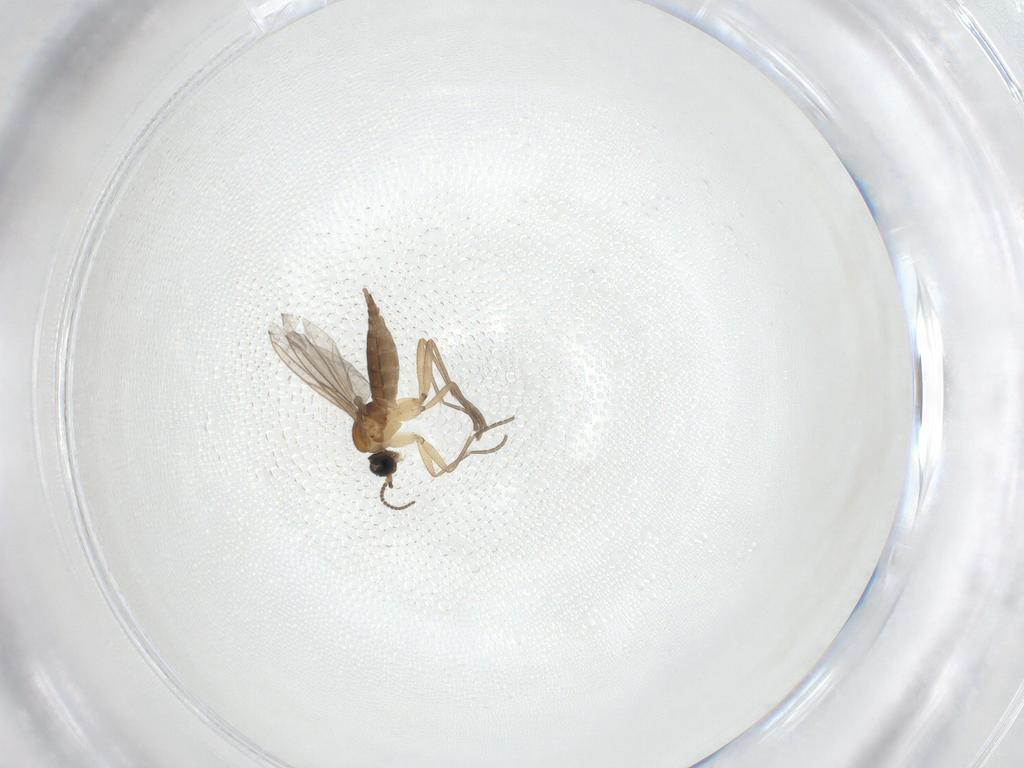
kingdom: Animalia
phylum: Arthropoda
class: Insecta
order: Diptera
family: Sciaridae
